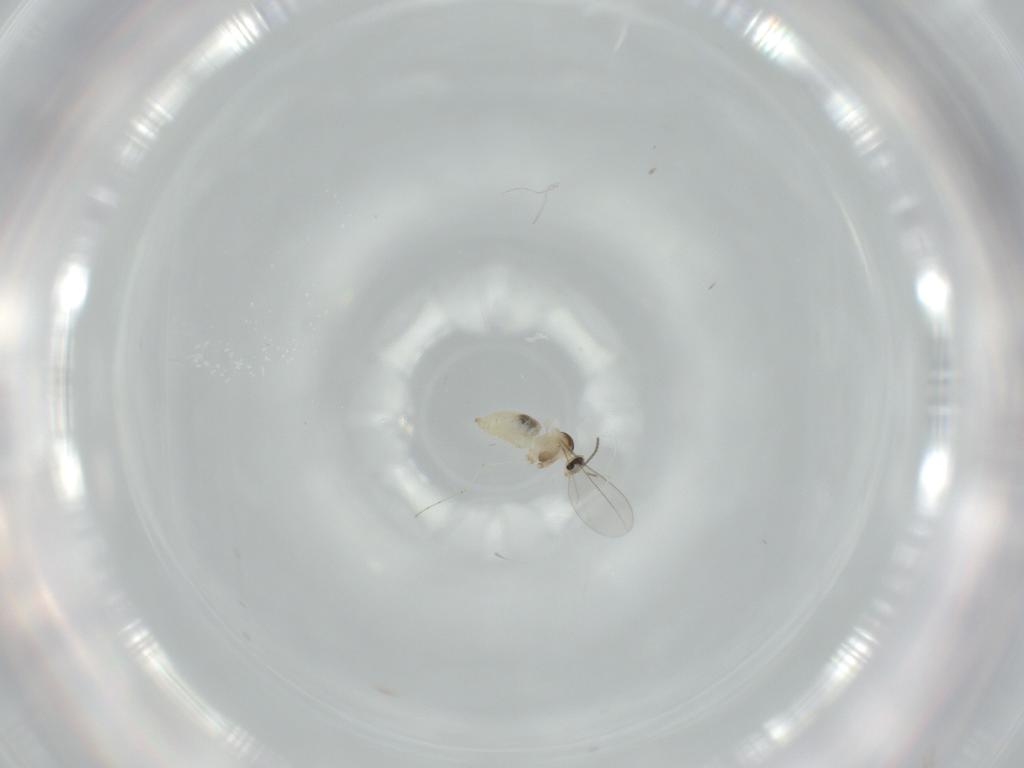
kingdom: Animalia
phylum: Arthropoda
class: Insecta
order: Diptera
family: Cecidomyiidae
